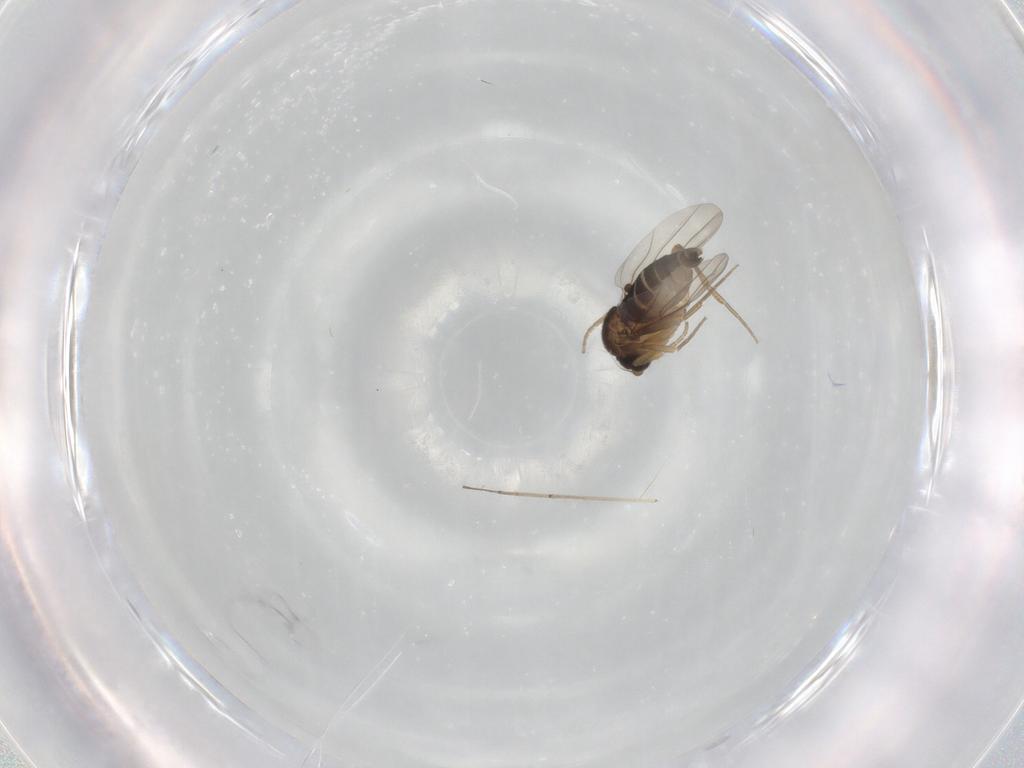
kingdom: Animalia
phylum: Arthropoda
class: Insecta
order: Diptera
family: Phoridae
